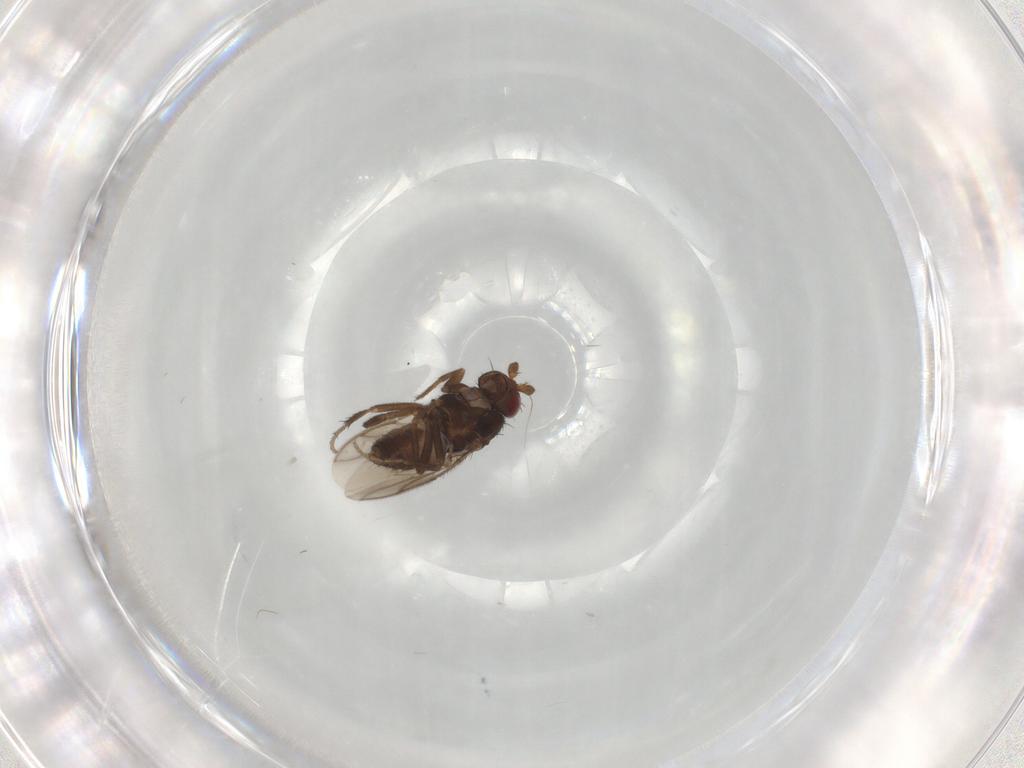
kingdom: Animalia
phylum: Arthropoda
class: Insecta
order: Diptera
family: Sphaeroceridae
